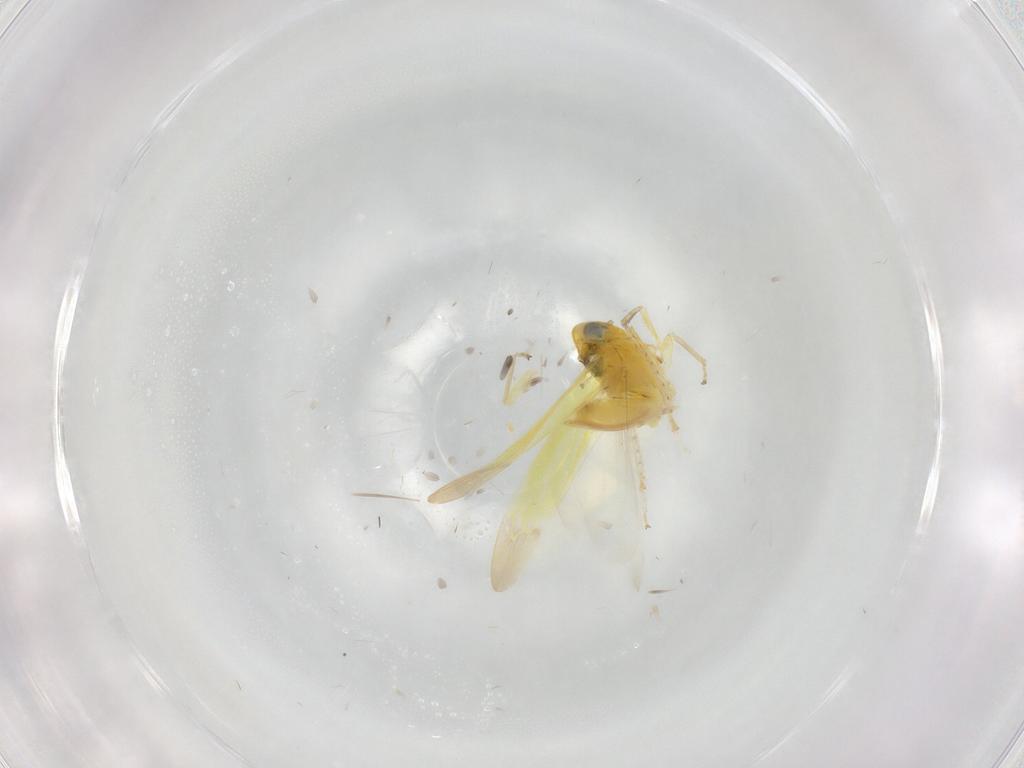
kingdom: Animalia
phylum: Arthropoda
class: Insecta
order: Hemiptera
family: Cicadellidae
